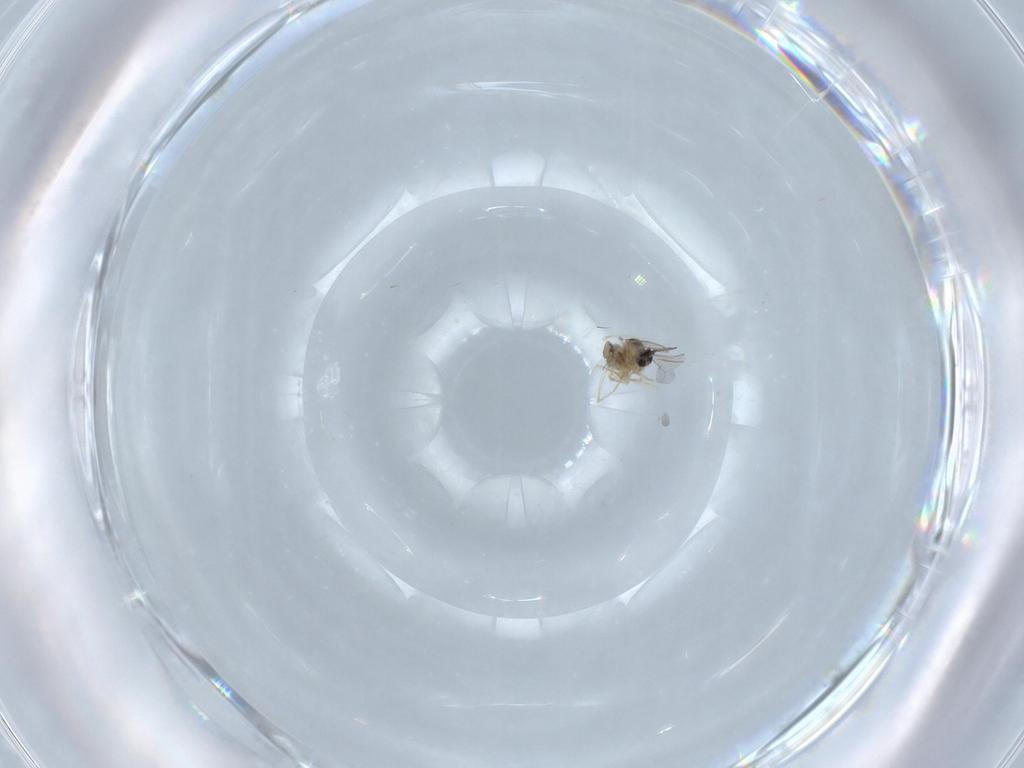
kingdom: Animalia
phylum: Arthropoda
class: Insecta
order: Diptera
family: Cecidomyiidae
